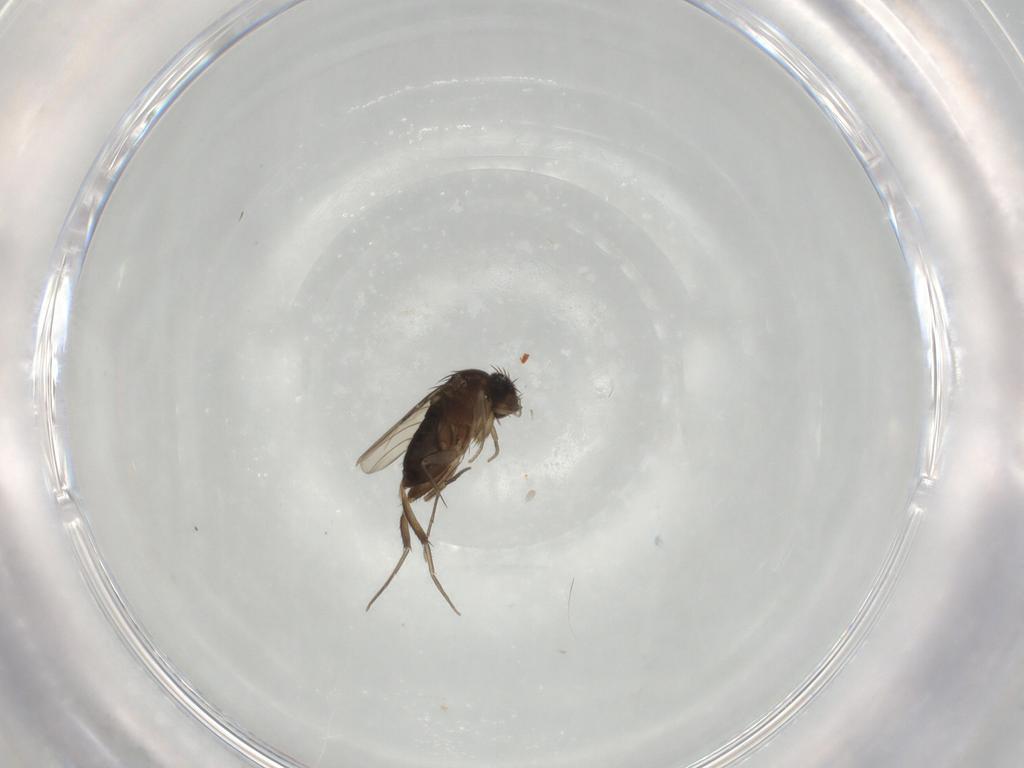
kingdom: Animalia
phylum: Arthropoda
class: Insecta
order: Diptera
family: Phoridae
